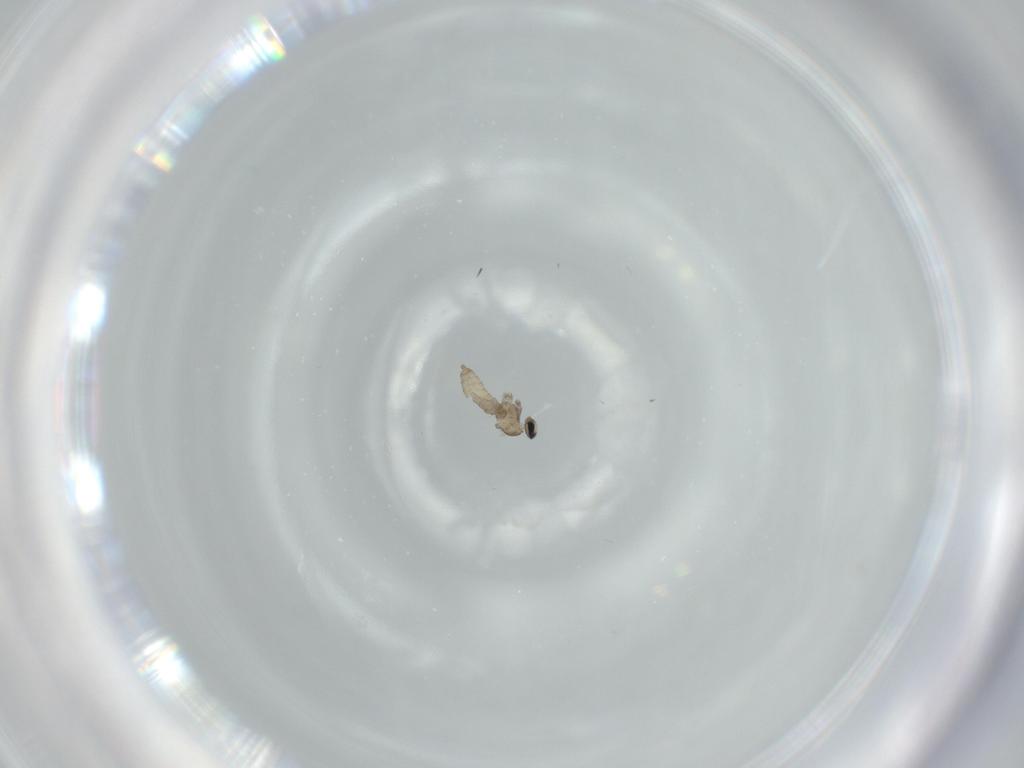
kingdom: Animalia
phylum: Arthropoda
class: Insecta
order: Diptera
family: Cecidomyiidae
